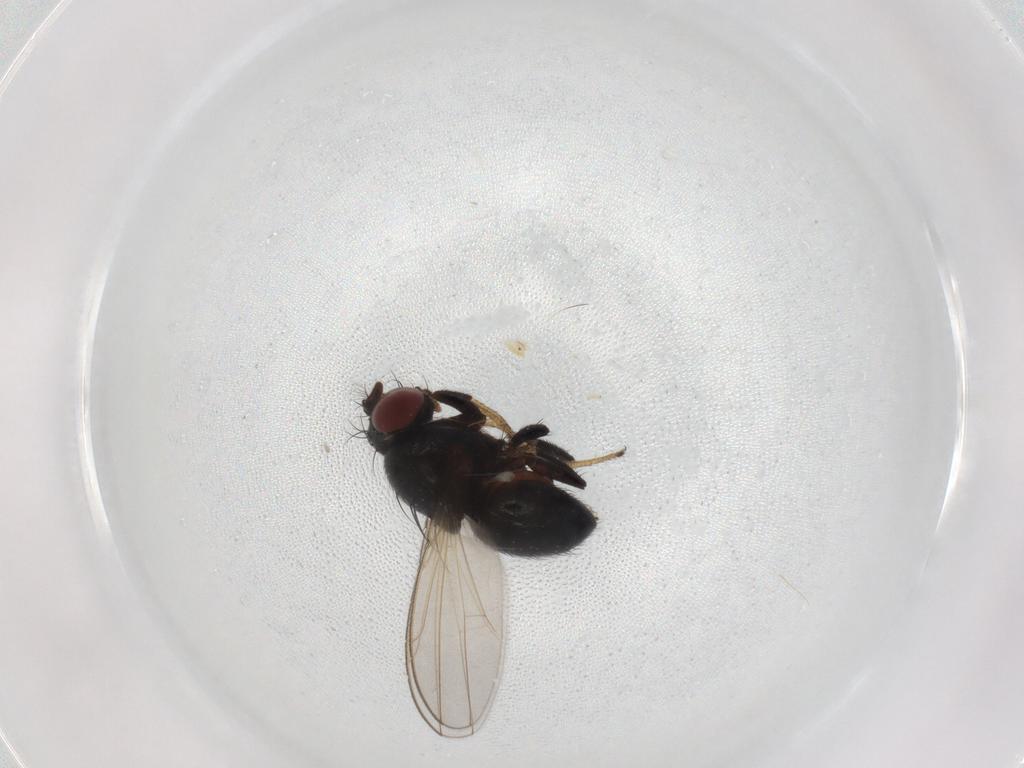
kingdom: Animalia
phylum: Arthropoda
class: Insecta
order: Diptera
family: Ephydridae
